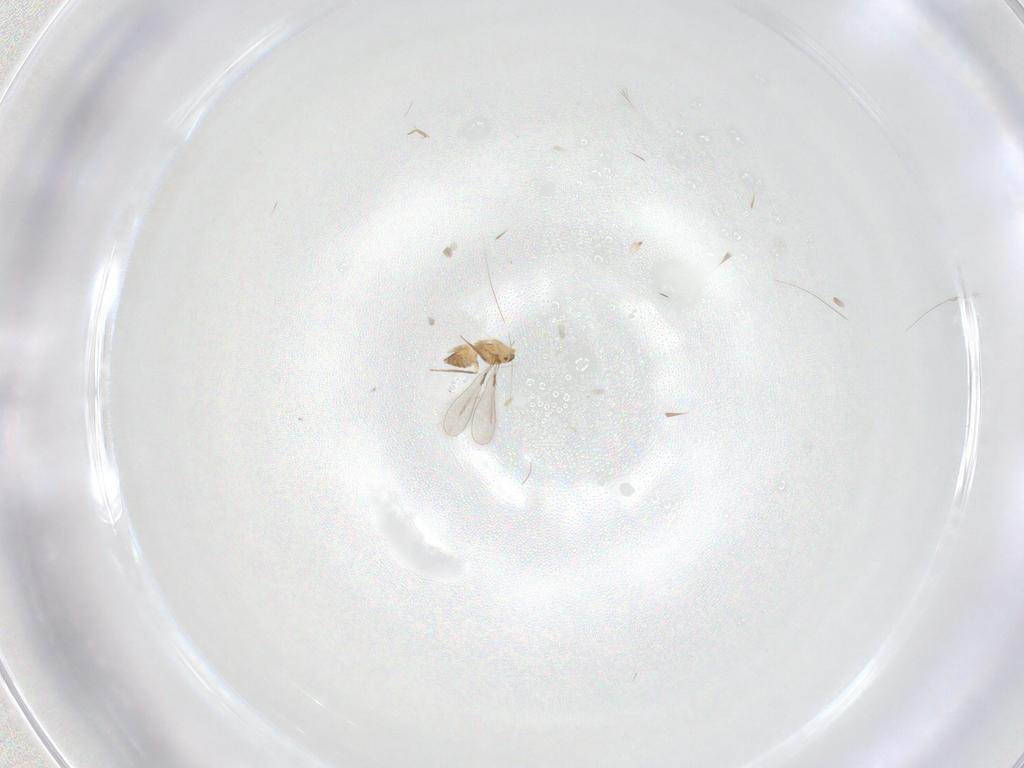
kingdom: Animalia
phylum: Arthropoda
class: Insecta
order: Hymenoptera
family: Mymaridae
